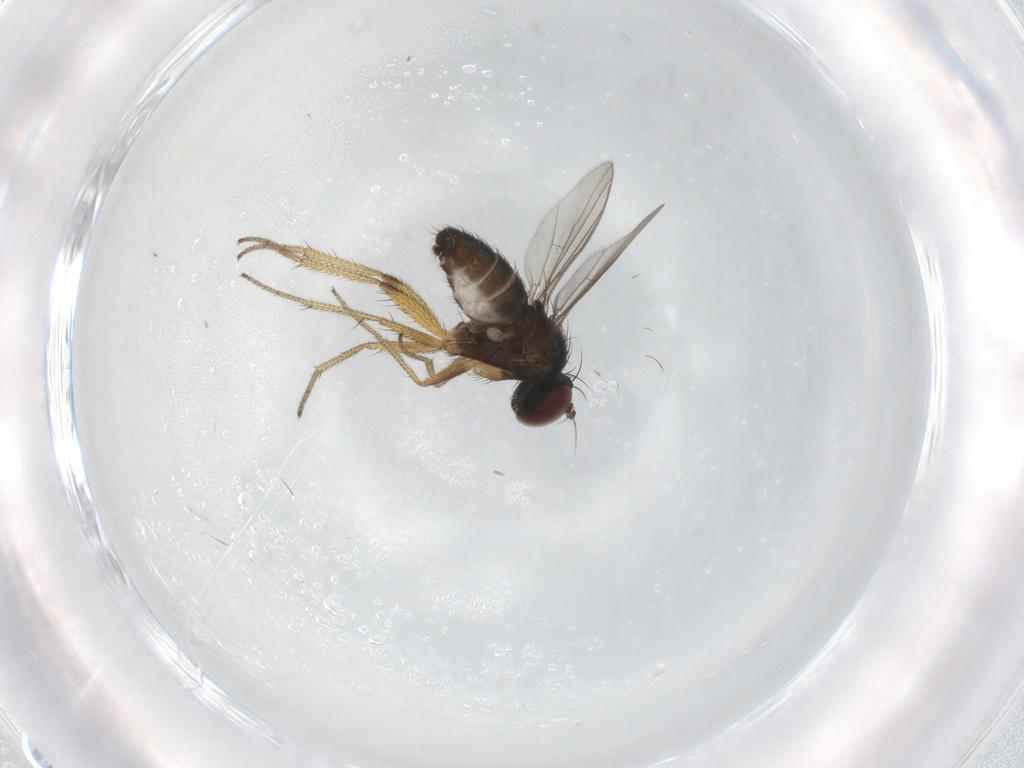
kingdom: Animalia
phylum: Arthropoda
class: Insecta
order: Diptera
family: Dolichopodidae
